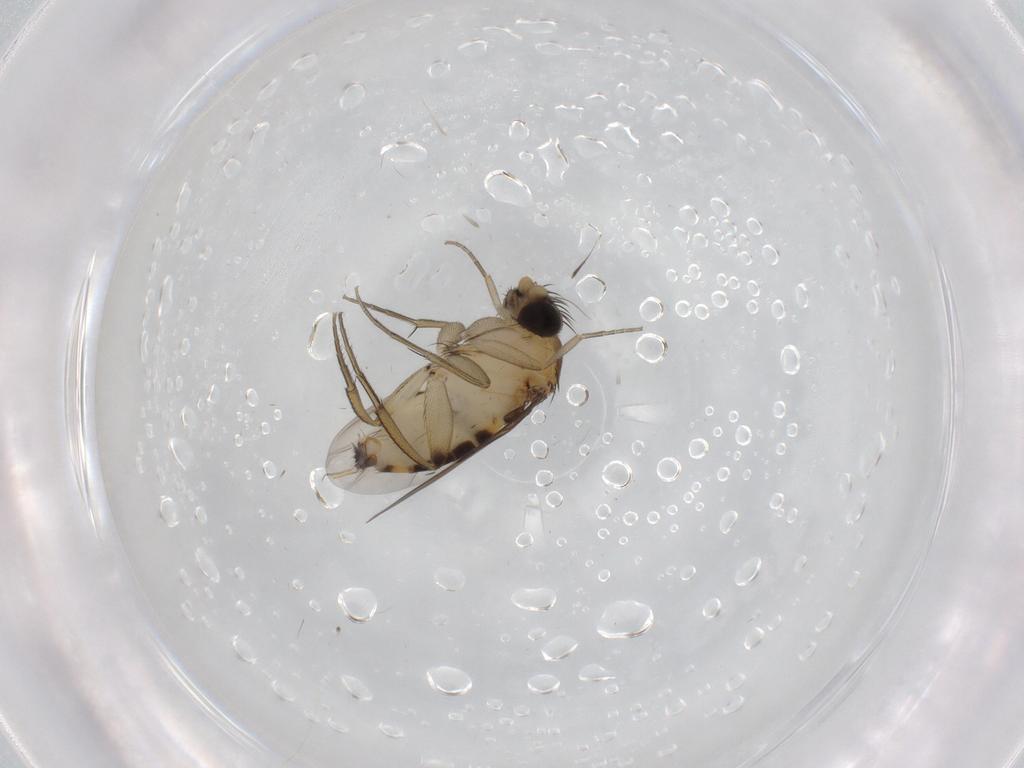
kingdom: Animalia
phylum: Arthropoda
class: Insecta
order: Diptera
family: Phoridae
